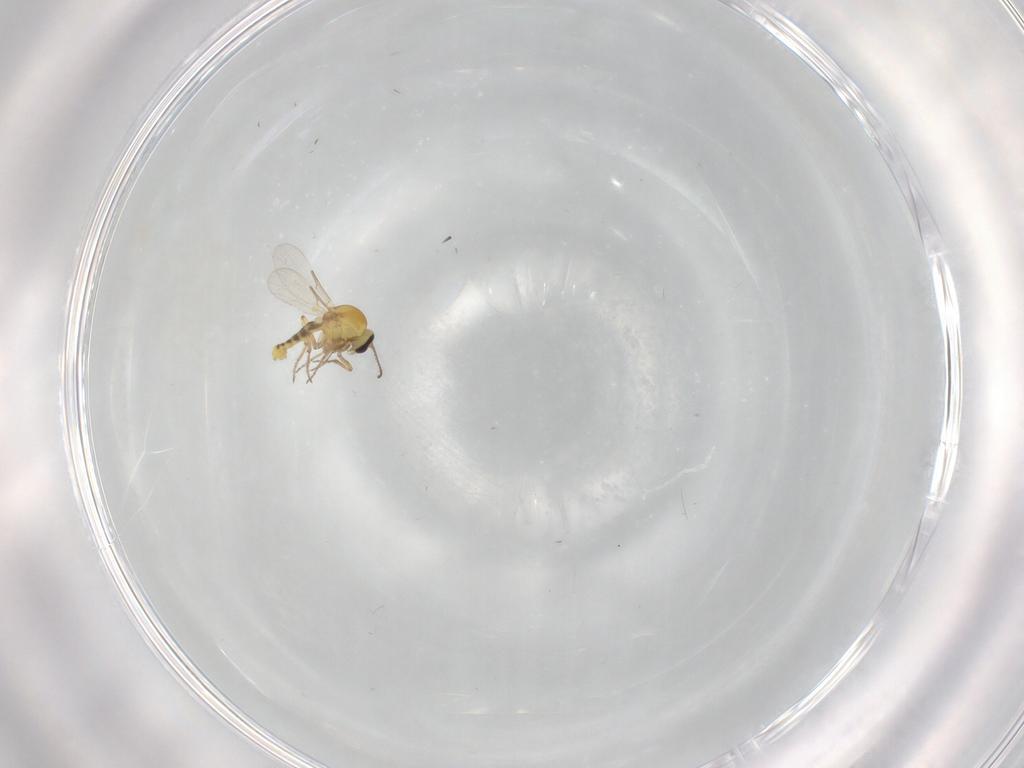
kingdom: Animalia
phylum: Arthropoda
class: Insecta
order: Diptera
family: Ceratopogonidae
